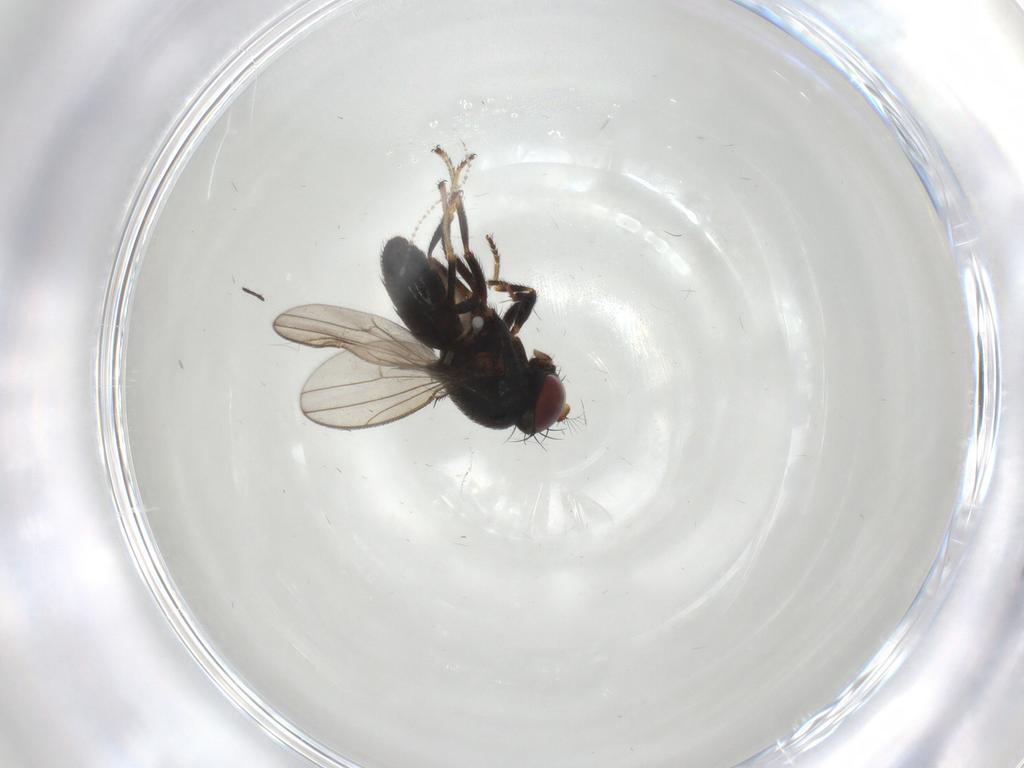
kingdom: Animalia
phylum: Arthropoda
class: Insecta
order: Diptera
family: Ephydridae
